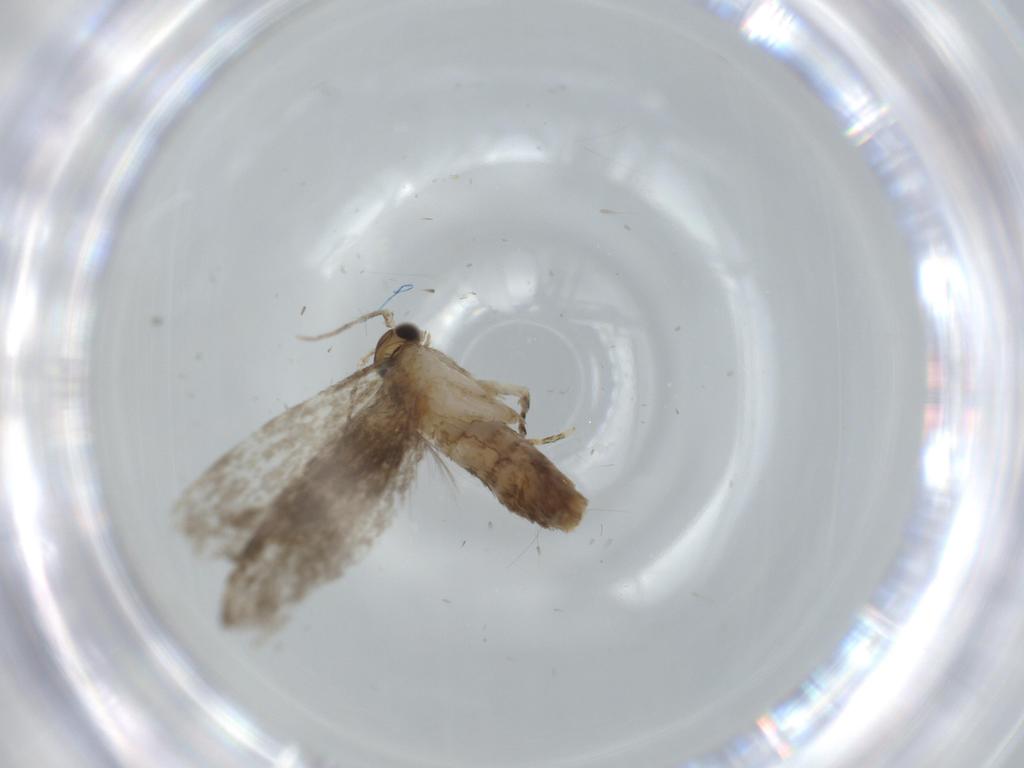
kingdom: Animalia
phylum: Arthropoda
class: Insecta
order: Lepidoptera
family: Tineidae
